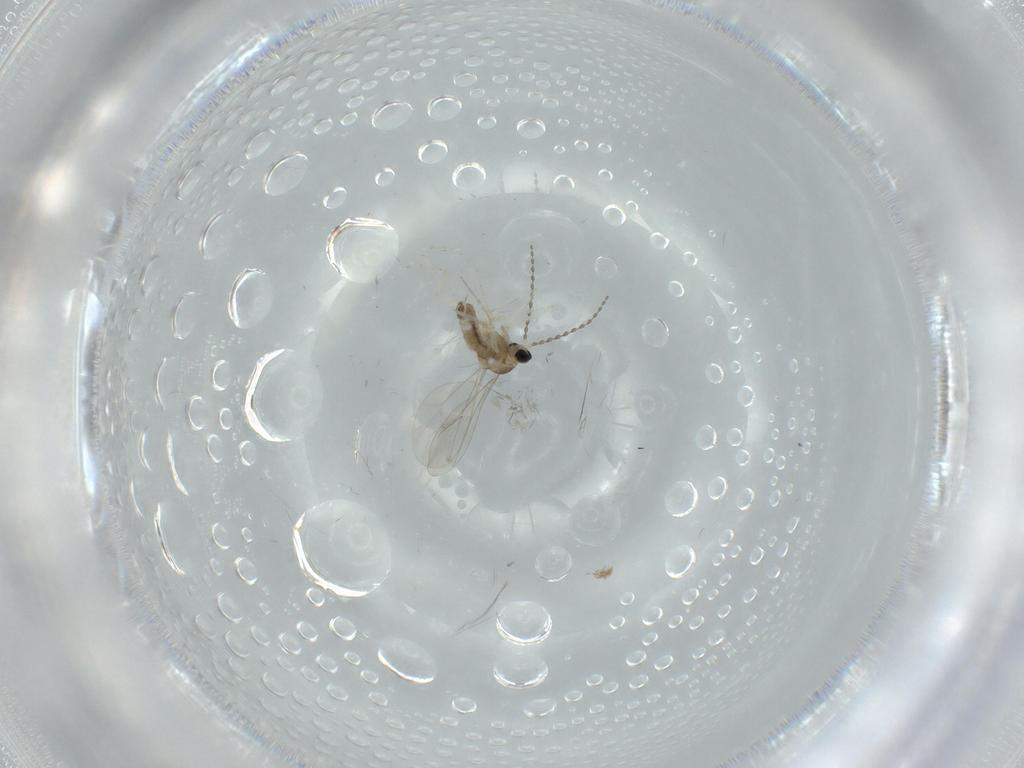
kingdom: Animalia
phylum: Arthropoda
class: Insecta
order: Diptera
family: Cecidomyiidae
